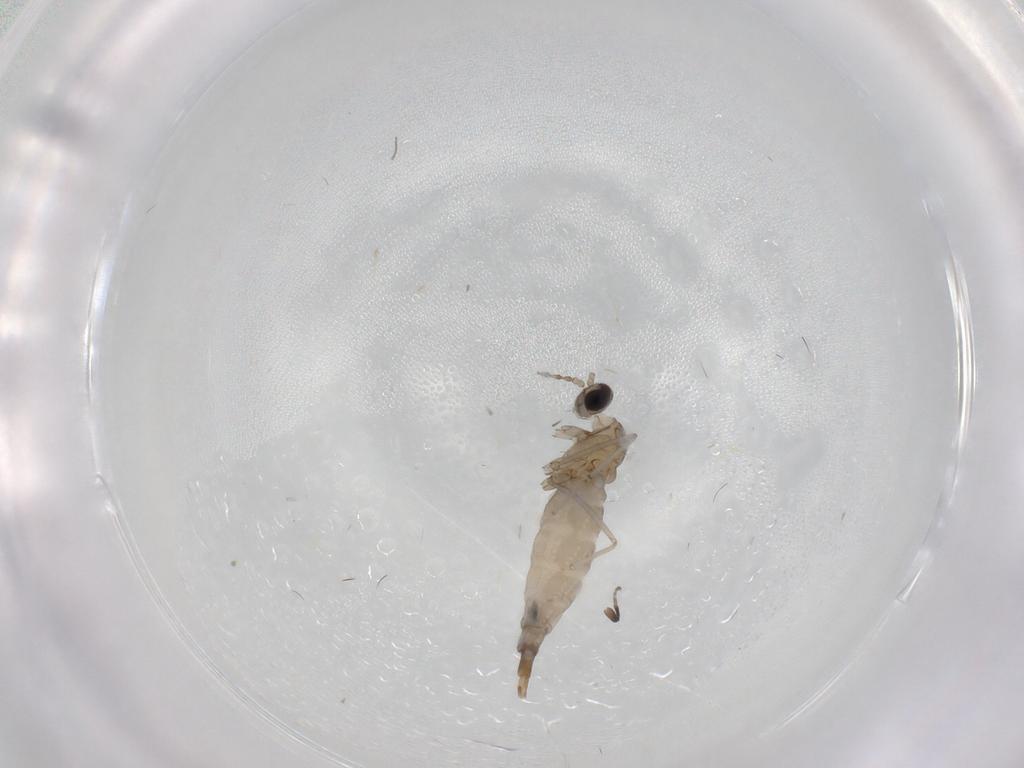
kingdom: Animalia
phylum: Arthropoda
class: Insecta
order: Diptera
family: Phoridae
